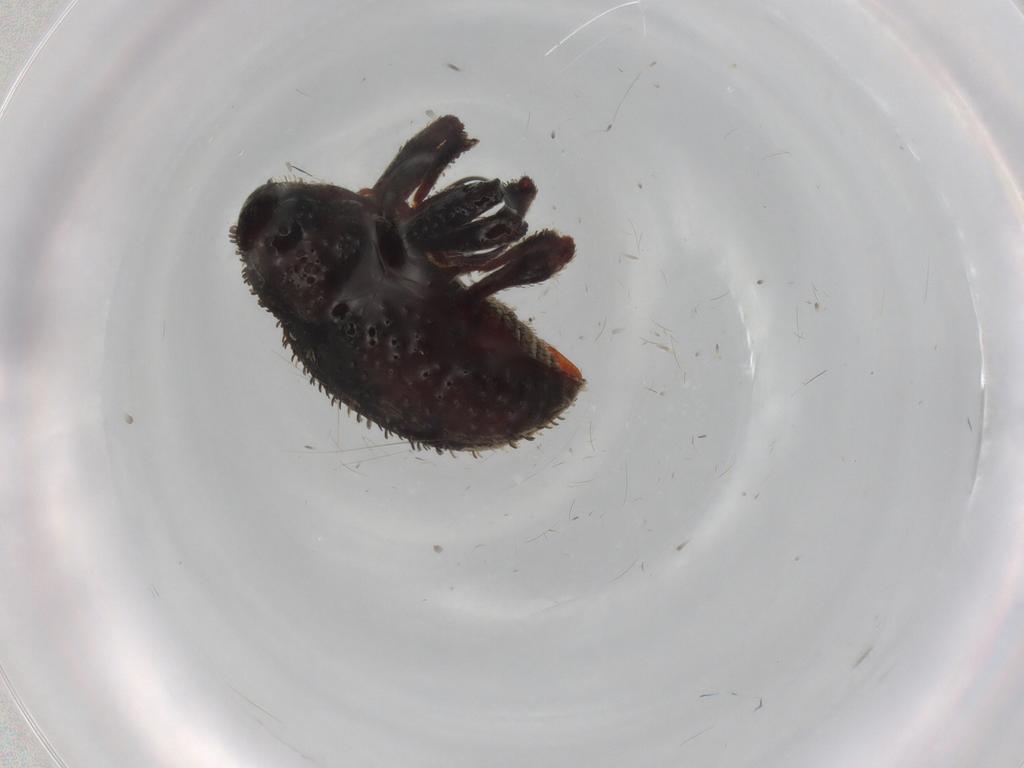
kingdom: Animalia
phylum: Arthropoda
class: Insecta
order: Coleoptera
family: Curculionidae
